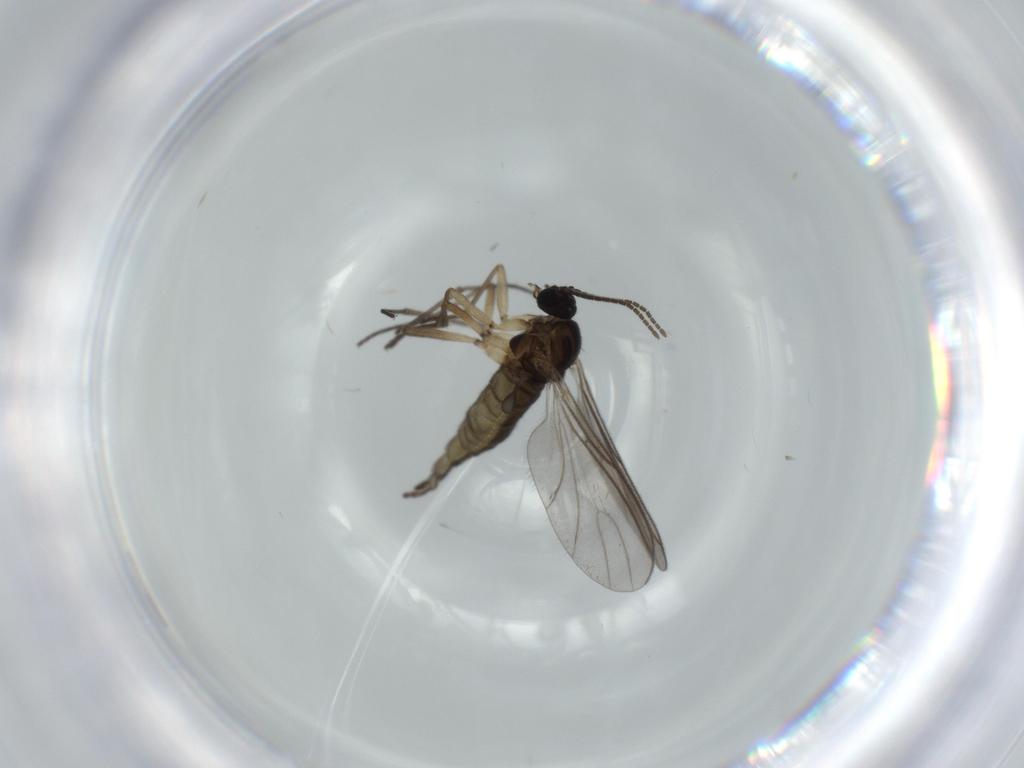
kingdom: Animalia
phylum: Arthropoda
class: Insecta
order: Diptera
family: Sciaridae
